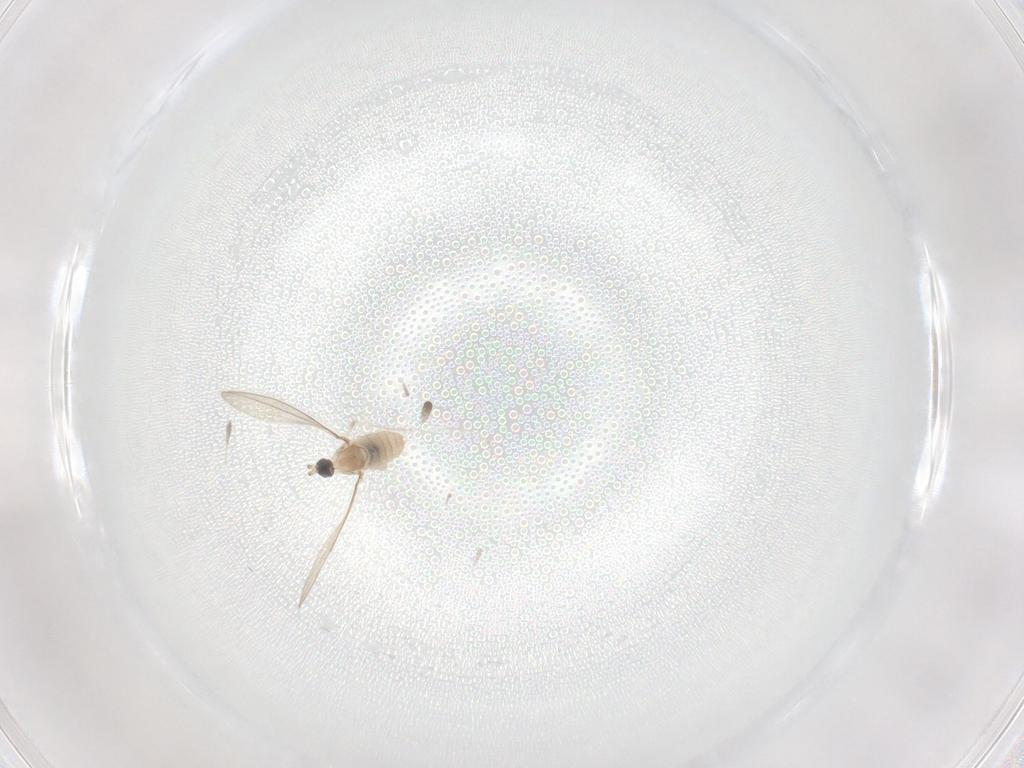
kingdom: Animalia
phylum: Arthropoda
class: Insecta
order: Diptera
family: Cecidomyiidae
